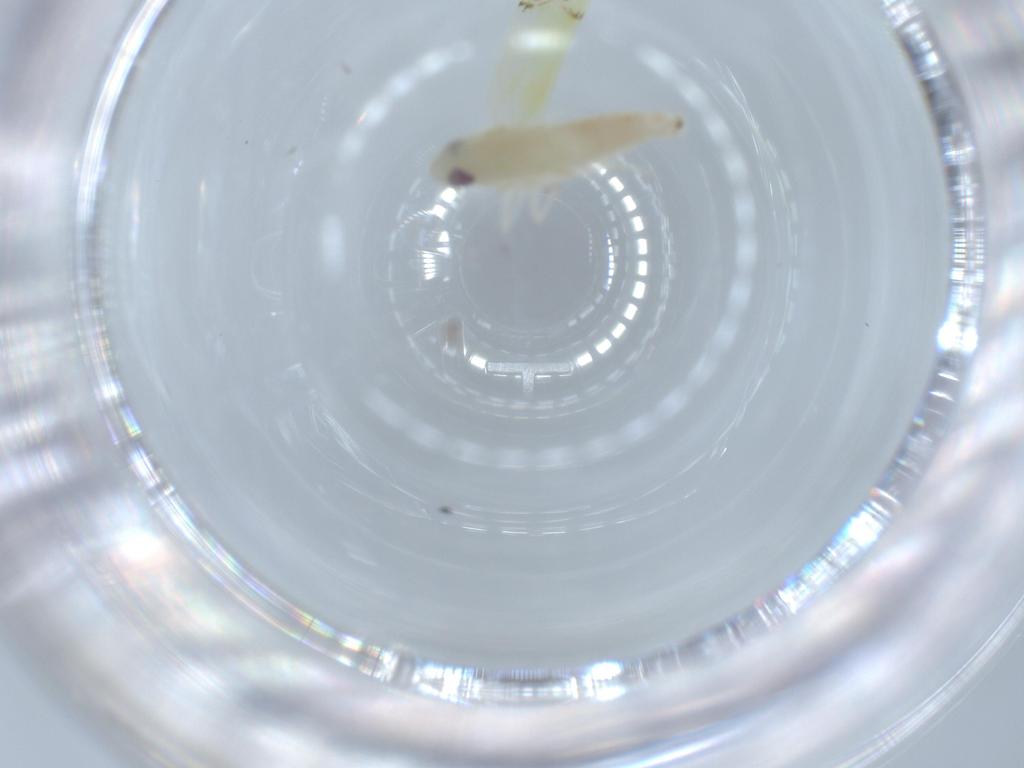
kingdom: Animalia
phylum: Arthropoda
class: Insecta
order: Hemiptera
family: Cicadellidae
